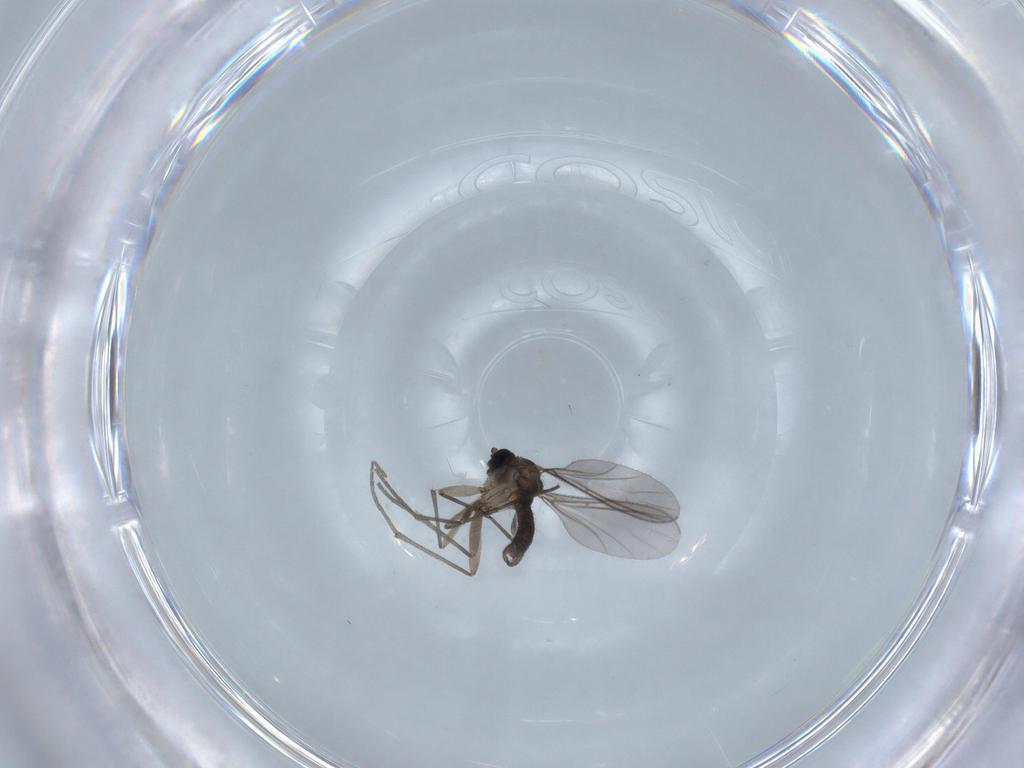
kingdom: Animalia
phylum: Arthropoda
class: Insecta
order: Diptera
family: Sciaridae
